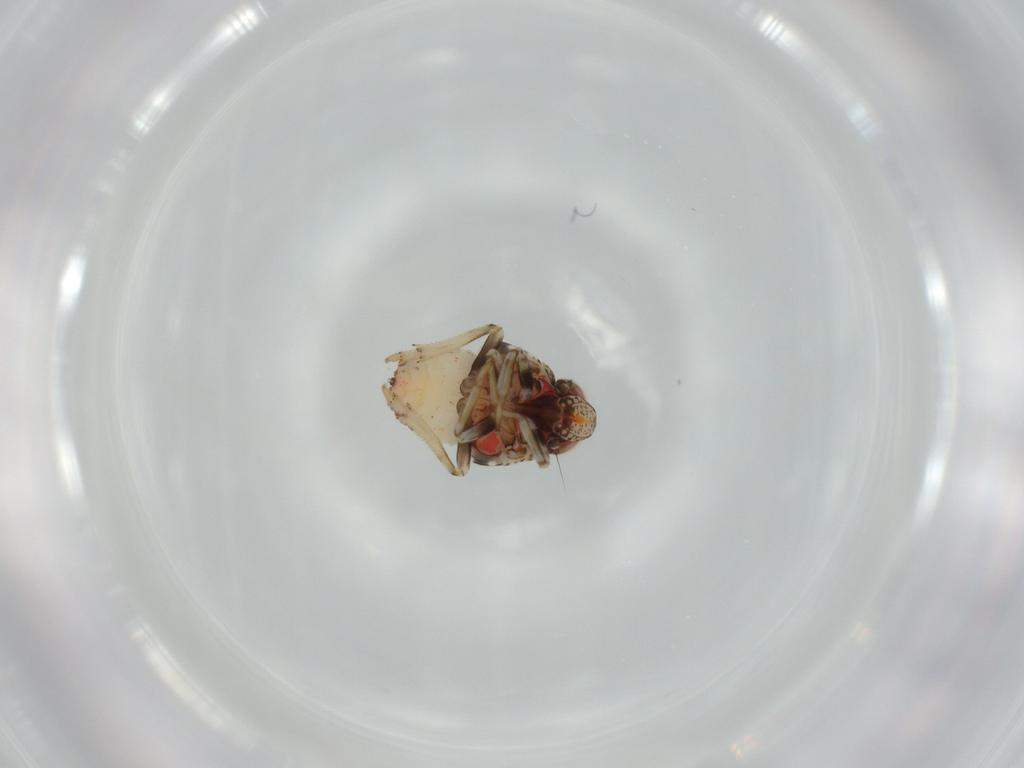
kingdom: Animalia
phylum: Arthropoda
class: Insecta
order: Hemiptera
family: Issidae
